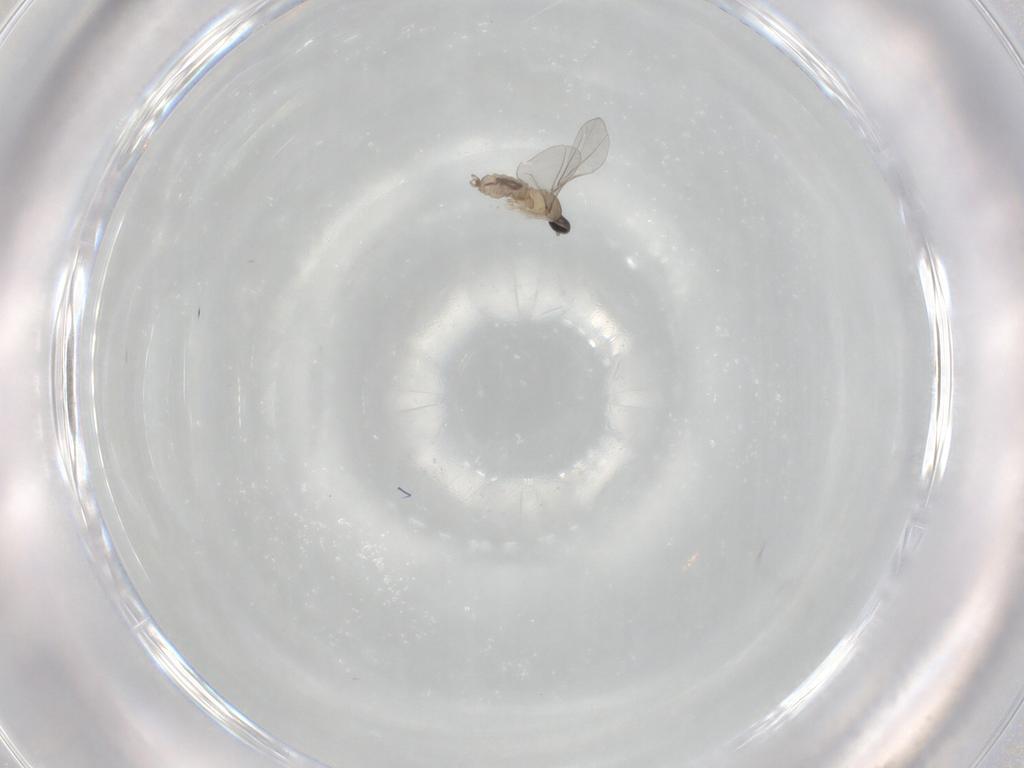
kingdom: Animalia
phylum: Arthropoda
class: Insecta
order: Diptera
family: Cecidomyiidae
